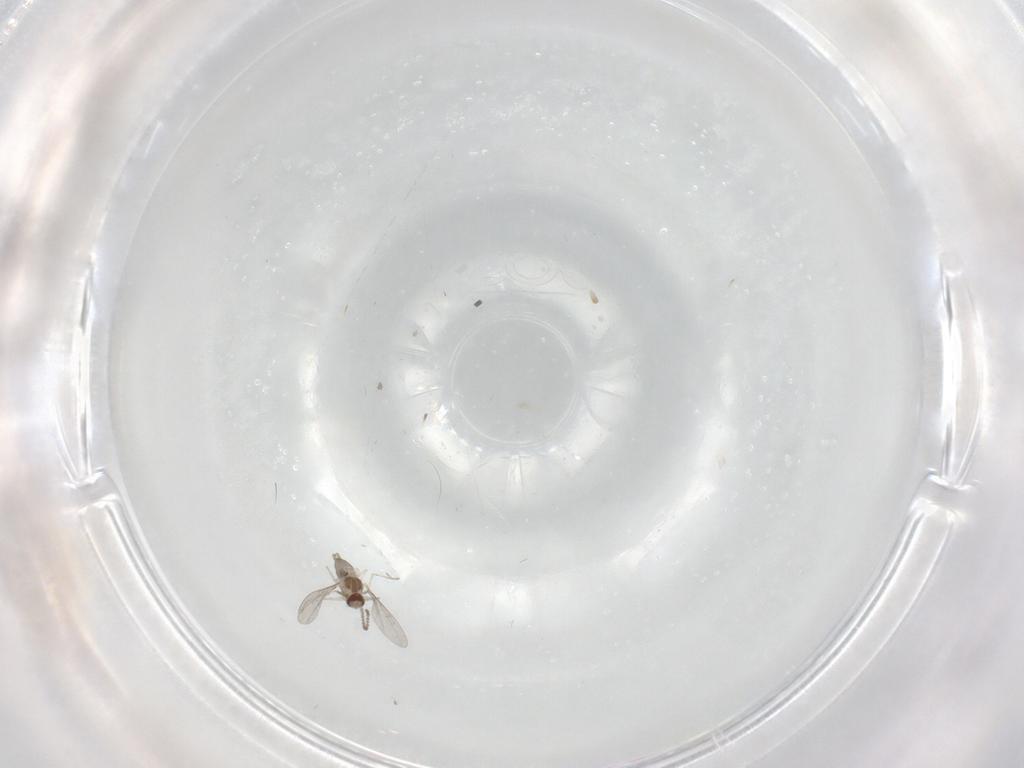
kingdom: Animalia
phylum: Arthropoda
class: Insecta
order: Diptera
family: Cecidomyiidae
